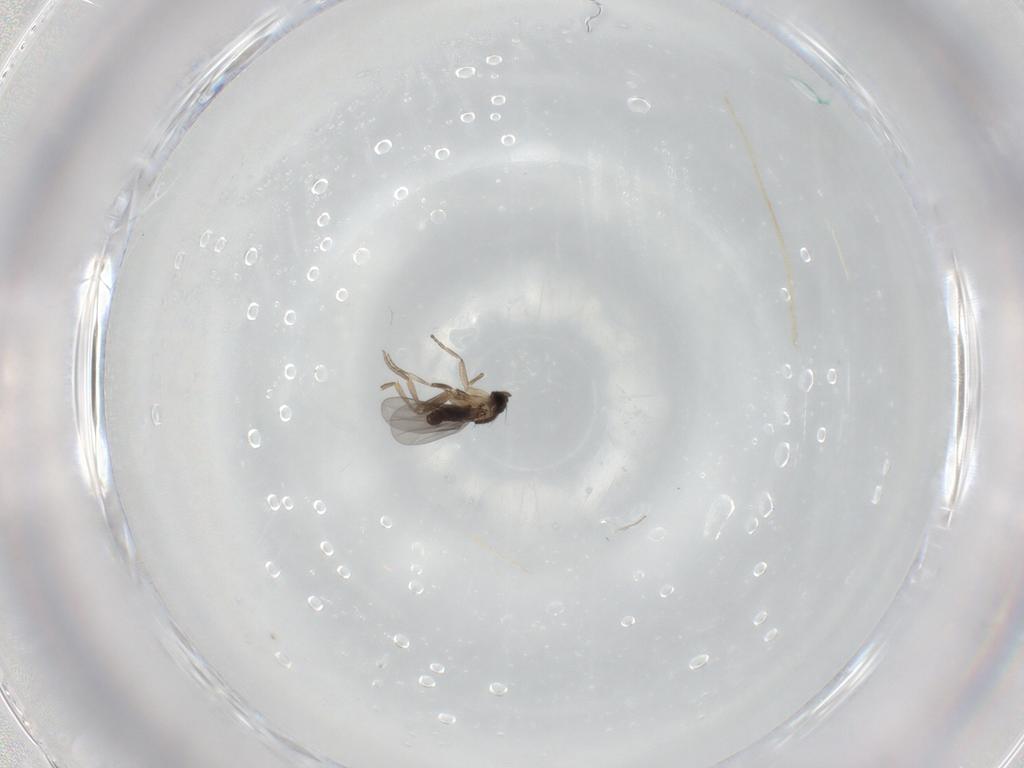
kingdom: Animalia
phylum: Arthropoda
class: Insecta
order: Diptera
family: Phoridae
